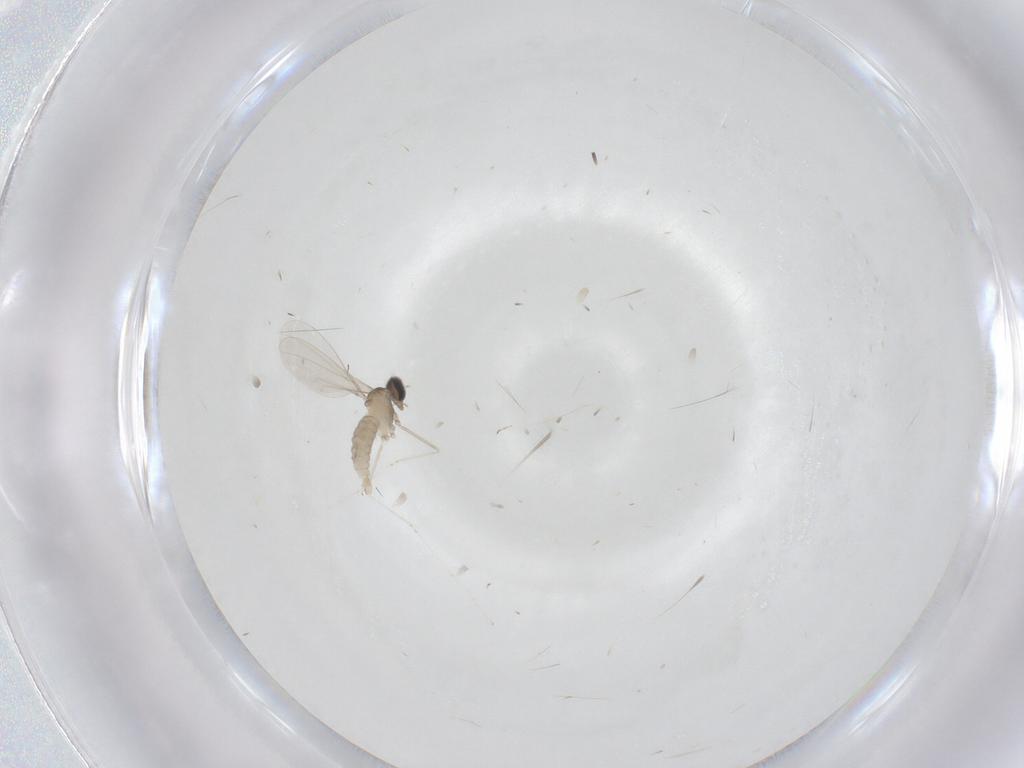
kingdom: Animalia
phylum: Arthropoda
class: Insecta
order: Diptera
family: Cecidomyiidae
